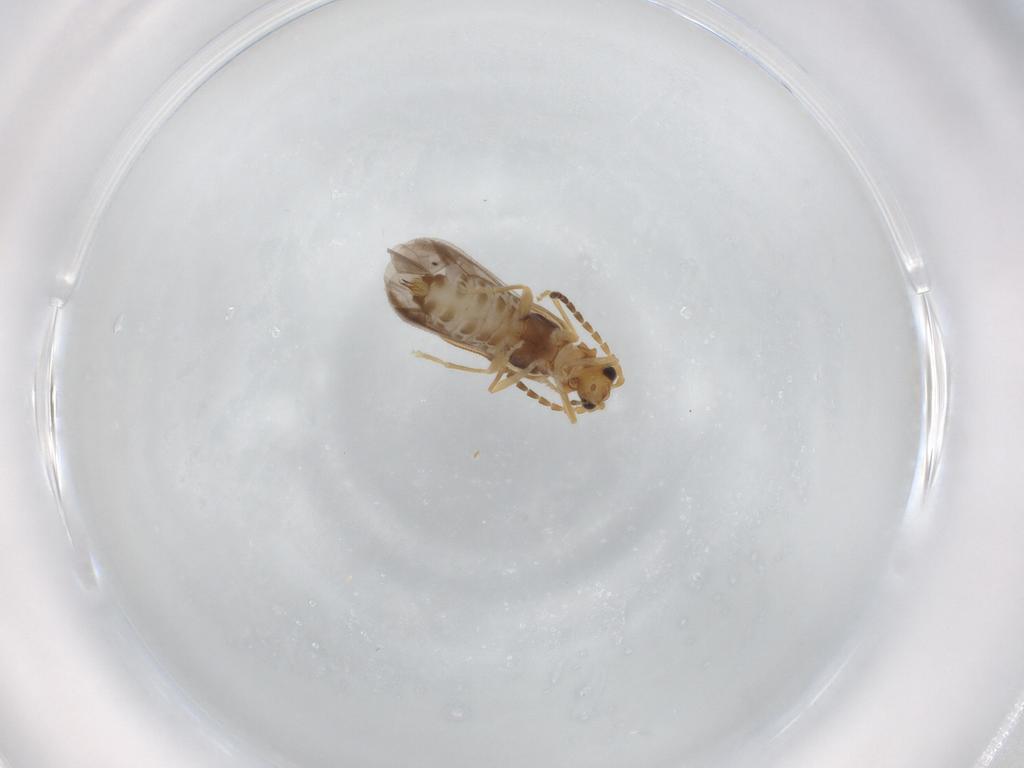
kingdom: Animalia
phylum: Arthropoda
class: Insecta
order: Coleoptera
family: Cantharidae
